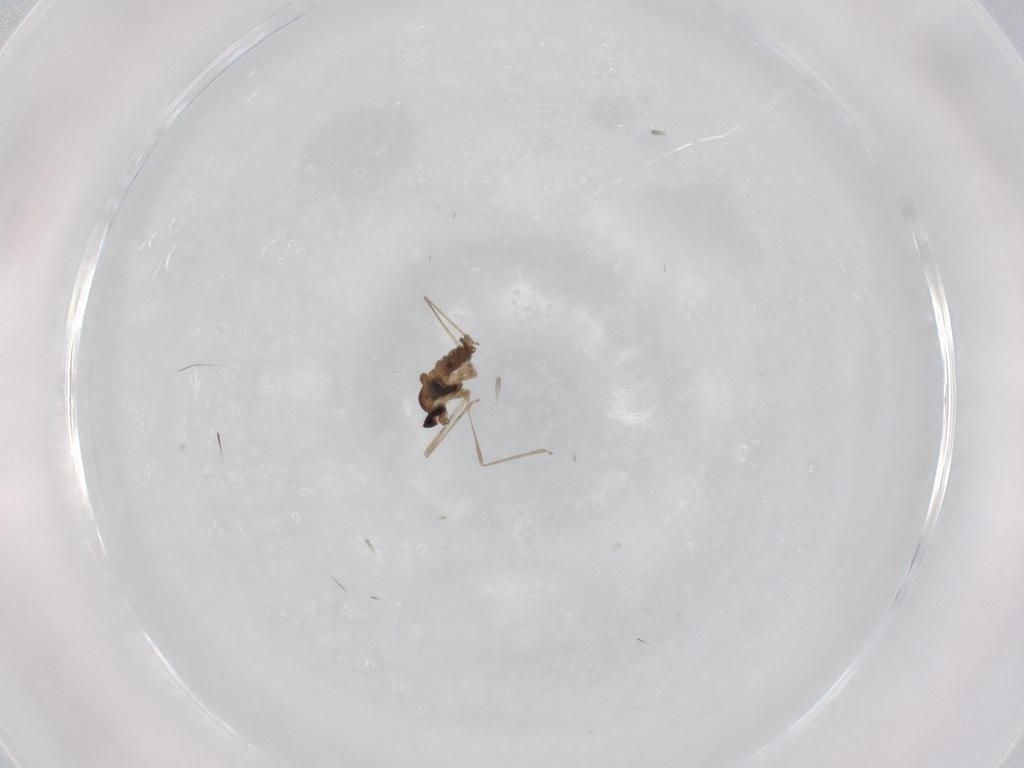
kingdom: Animalia
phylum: Arthropoda
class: Insecta
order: Diptera
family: Cecidomyiidae
